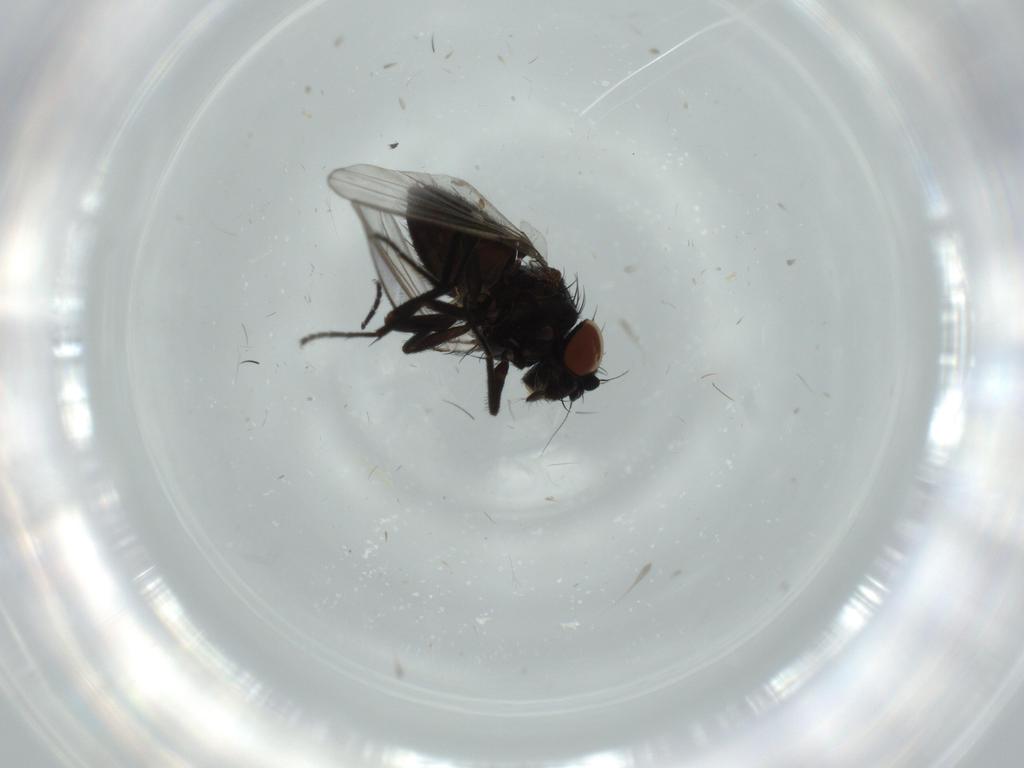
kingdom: Animalia
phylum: Arthropoda
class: Insecta
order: Diptera
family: Milichiidae
